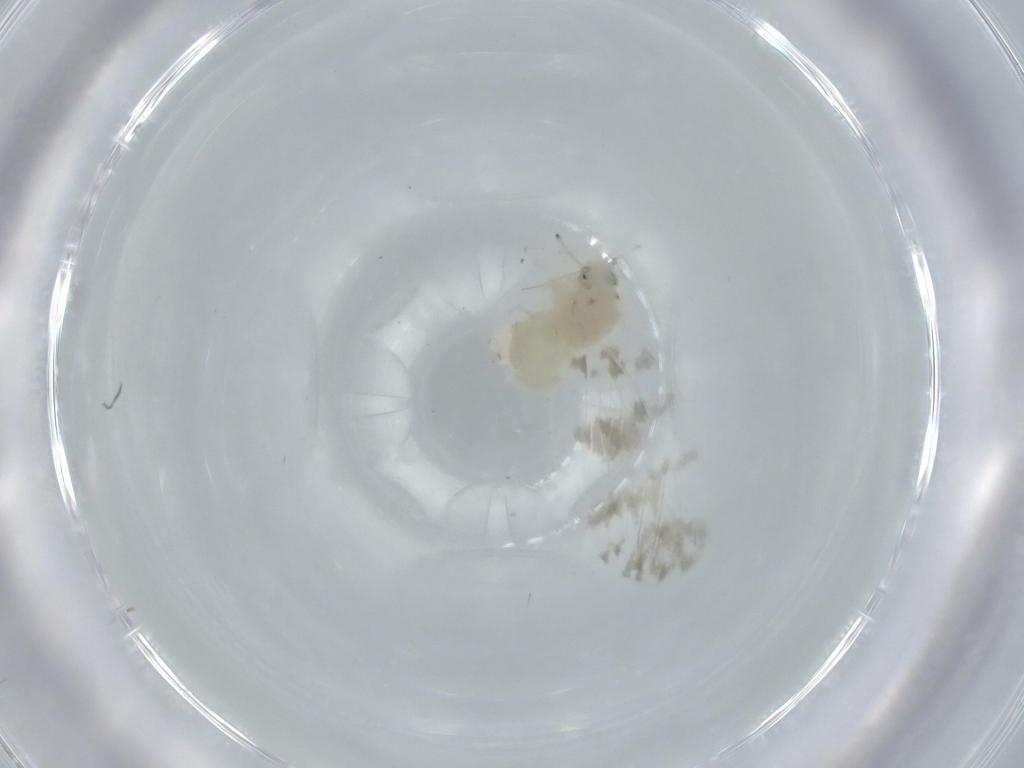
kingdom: Animalia
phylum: Arthropoda
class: Insecta
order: Hemiptera
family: Aleyrodidae
